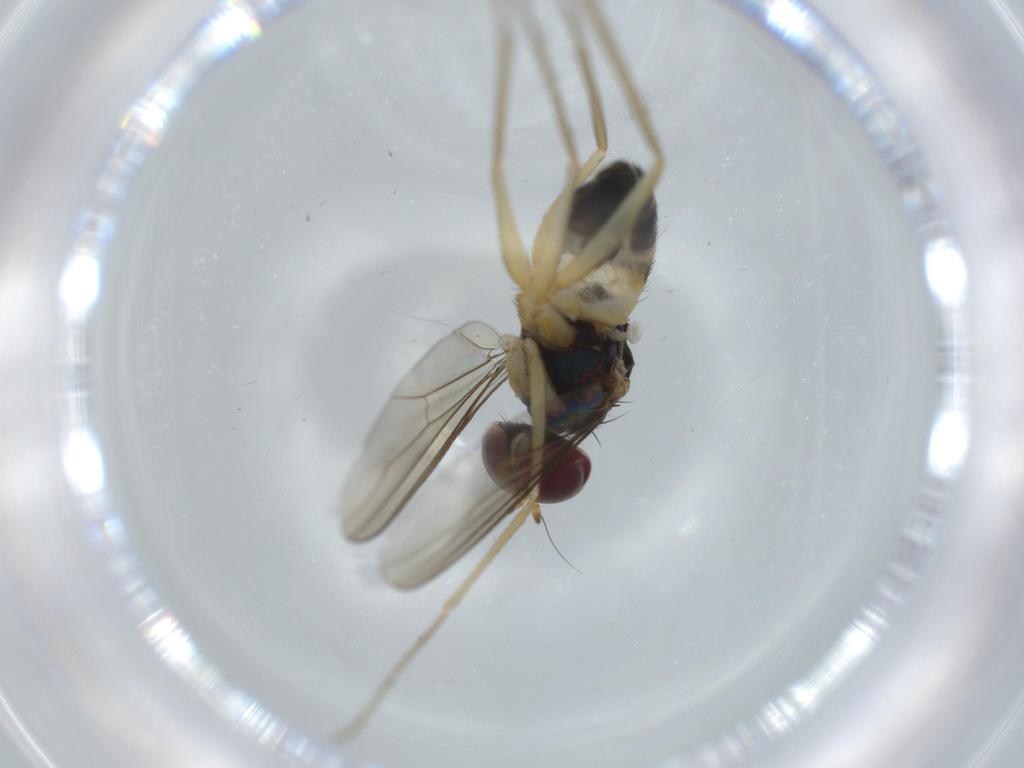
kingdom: Animalia
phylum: Arthropoda
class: Insecta
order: Diptera
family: Dolichopodidae
